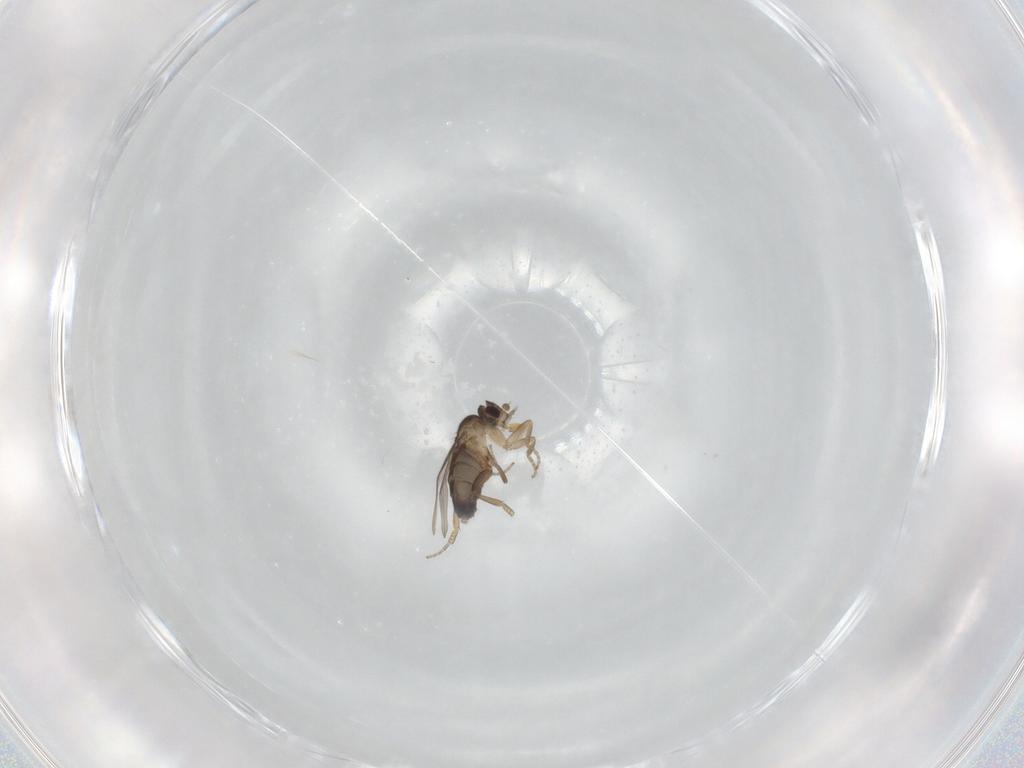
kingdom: Animalia
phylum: Arthropoda
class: Insecta
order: Diptera
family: Phoridae
